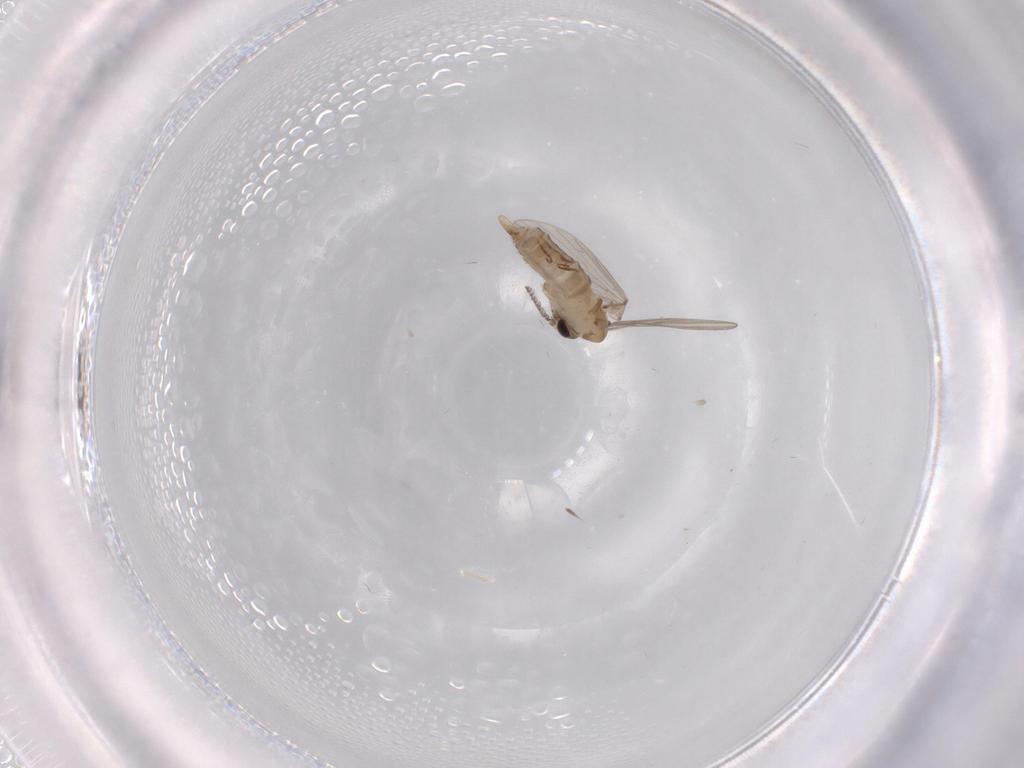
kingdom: Animalia
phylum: Arthropoda
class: Insecta
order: Diptera
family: Psychodidae
